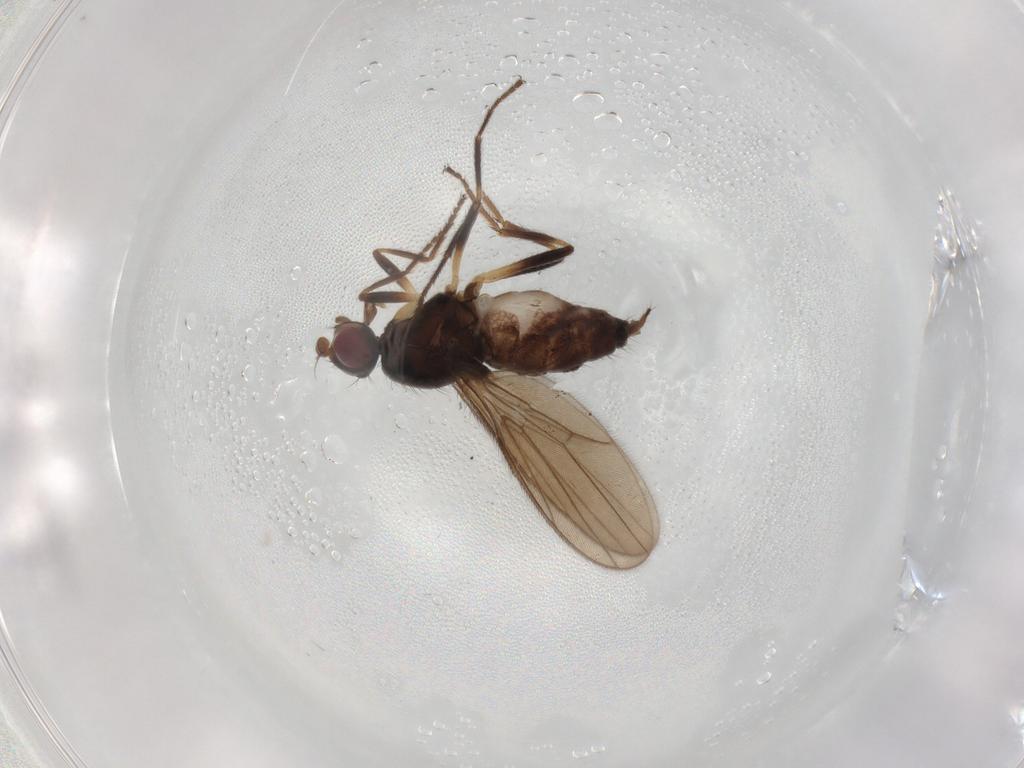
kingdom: Animalia
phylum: Arthropoda
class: Insecta
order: Diptera
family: Chloropidae
